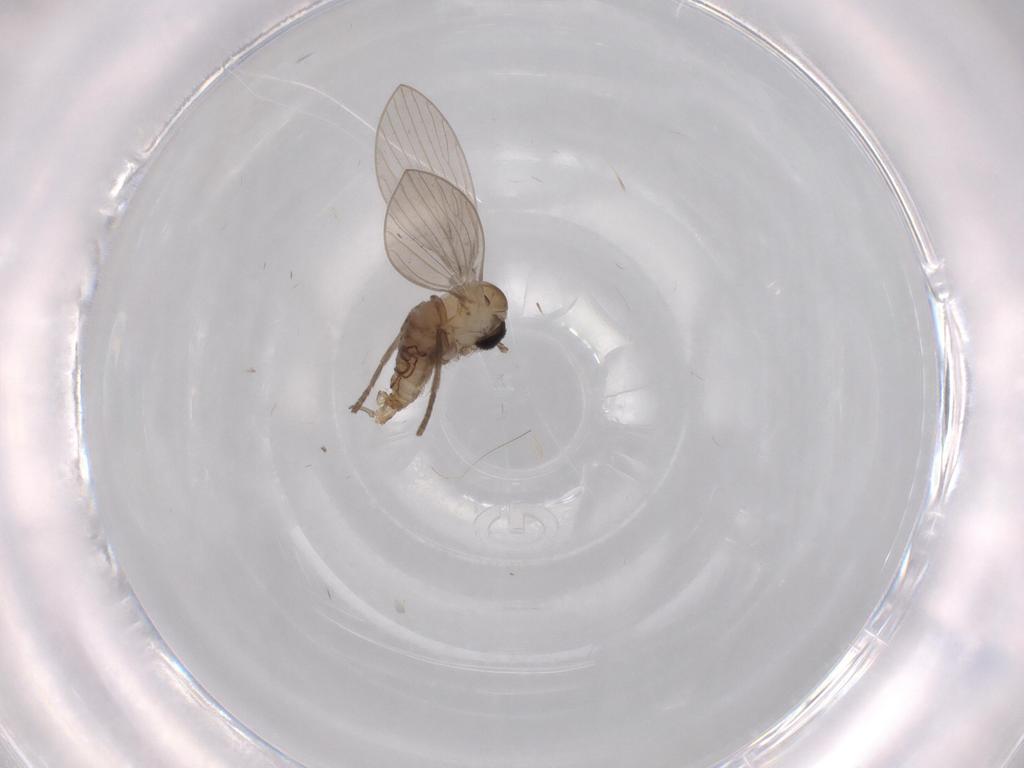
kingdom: Animalia
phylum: Arthropoda
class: Insecta
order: Diptera
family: Psychodidae
